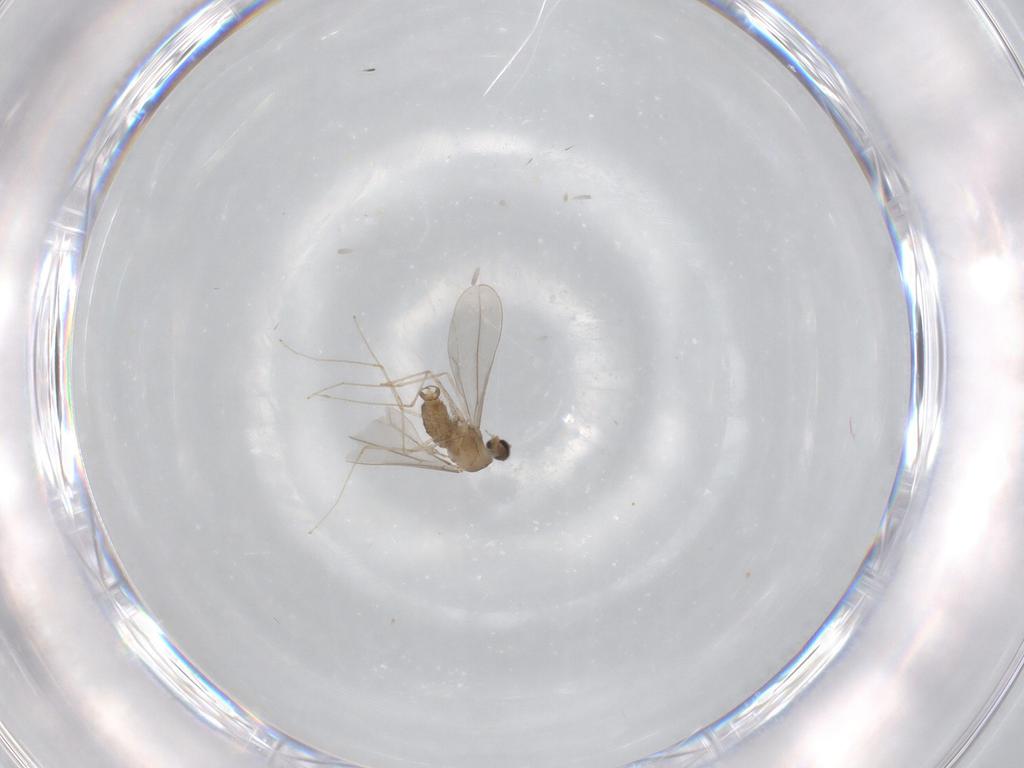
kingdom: Animalia
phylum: Arthropoda
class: Insecta
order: Diptera
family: Cecidomyiidae
